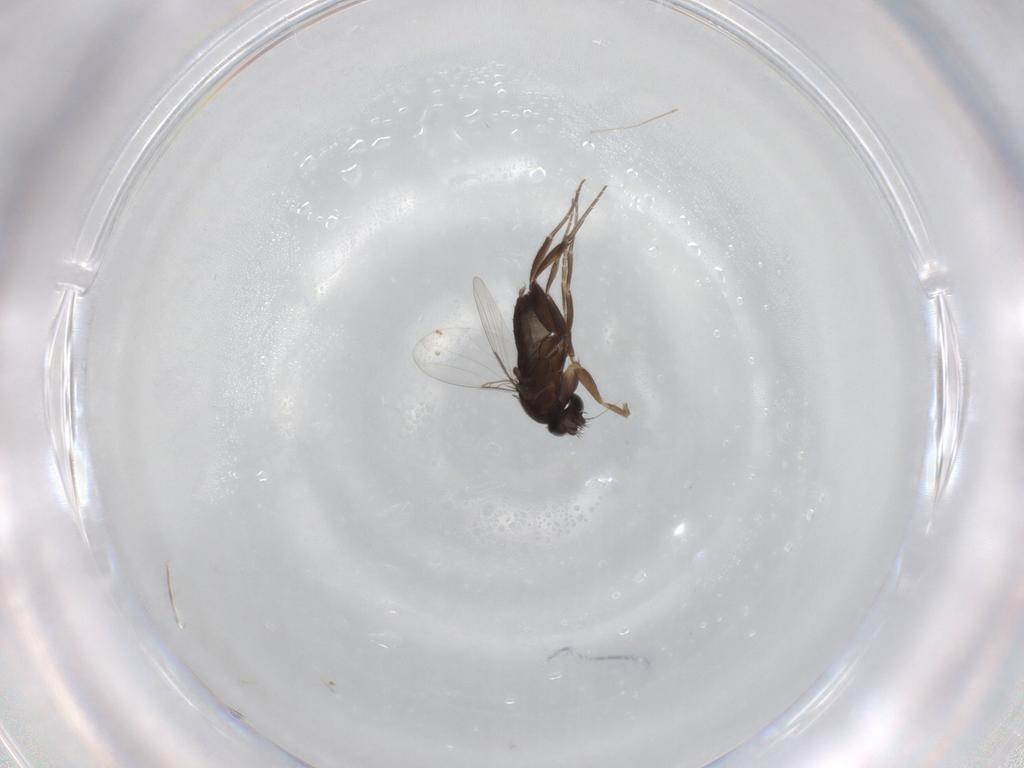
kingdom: Animalia
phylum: Arthropoda
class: Insecta
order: Diptera
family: Phoridae
